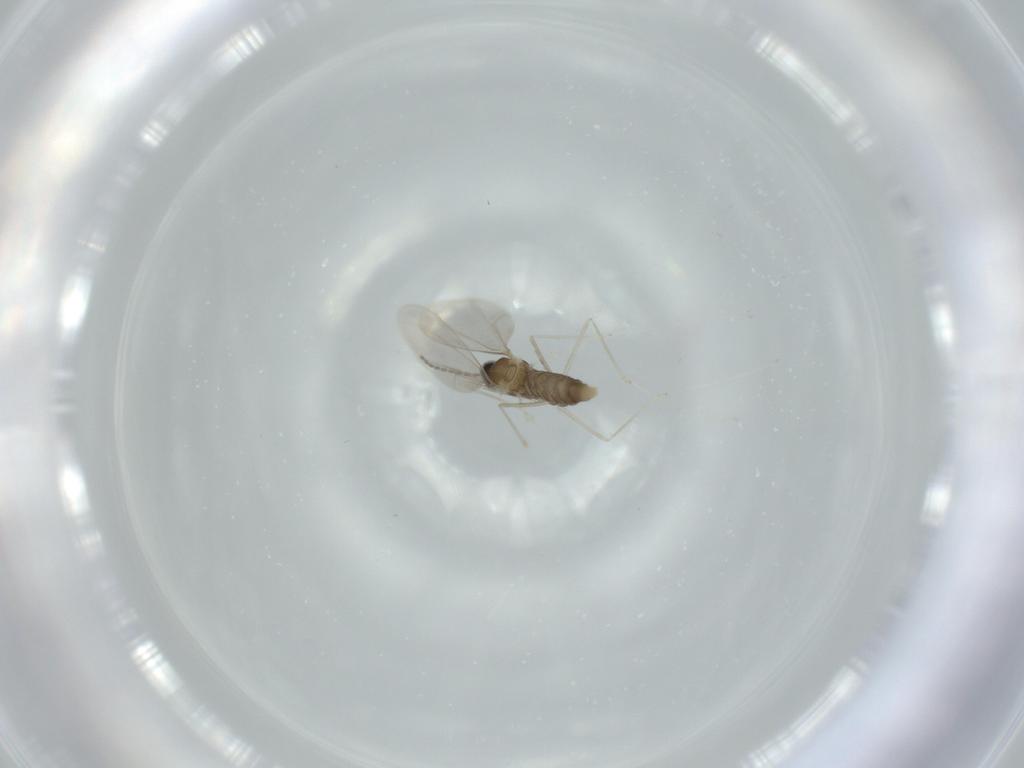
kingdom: Animalia
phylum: Arthropoda
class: Insecta
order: Diptera
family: Cecidomyiidae
